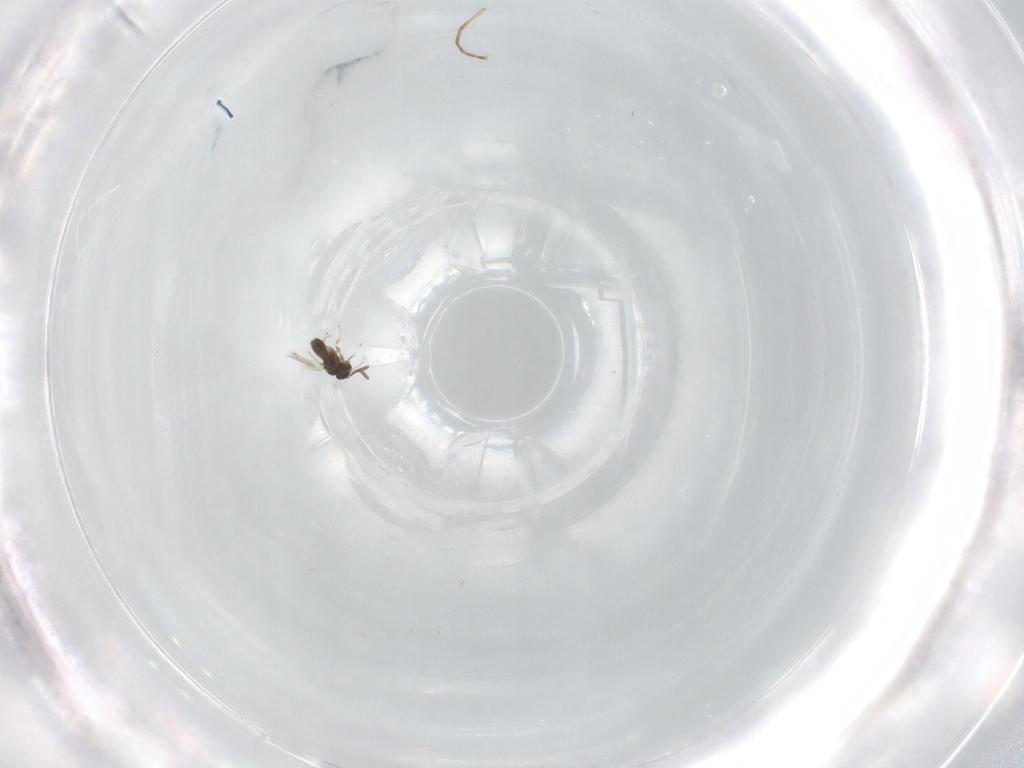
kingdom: Animalia
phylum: Arthropoda
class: Insecta
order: Hymenoptera
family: Scelionidae
